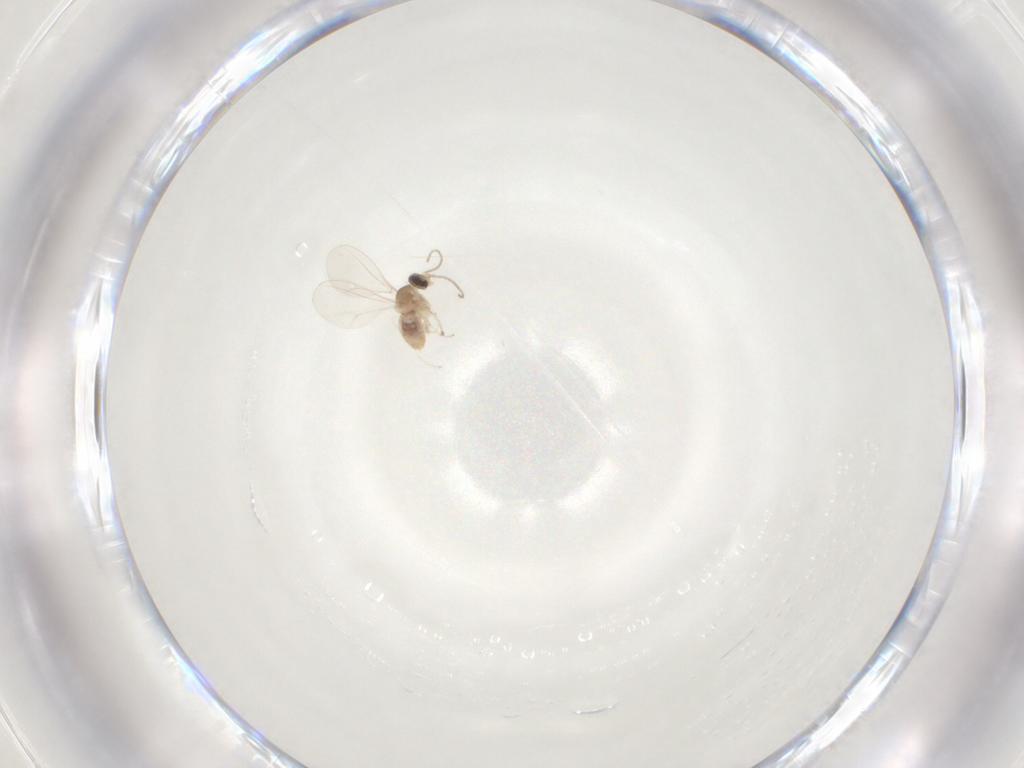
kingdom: Animalia
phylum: Arthropoda
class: Insecta
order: Diptera
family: Cecidomyiidae
